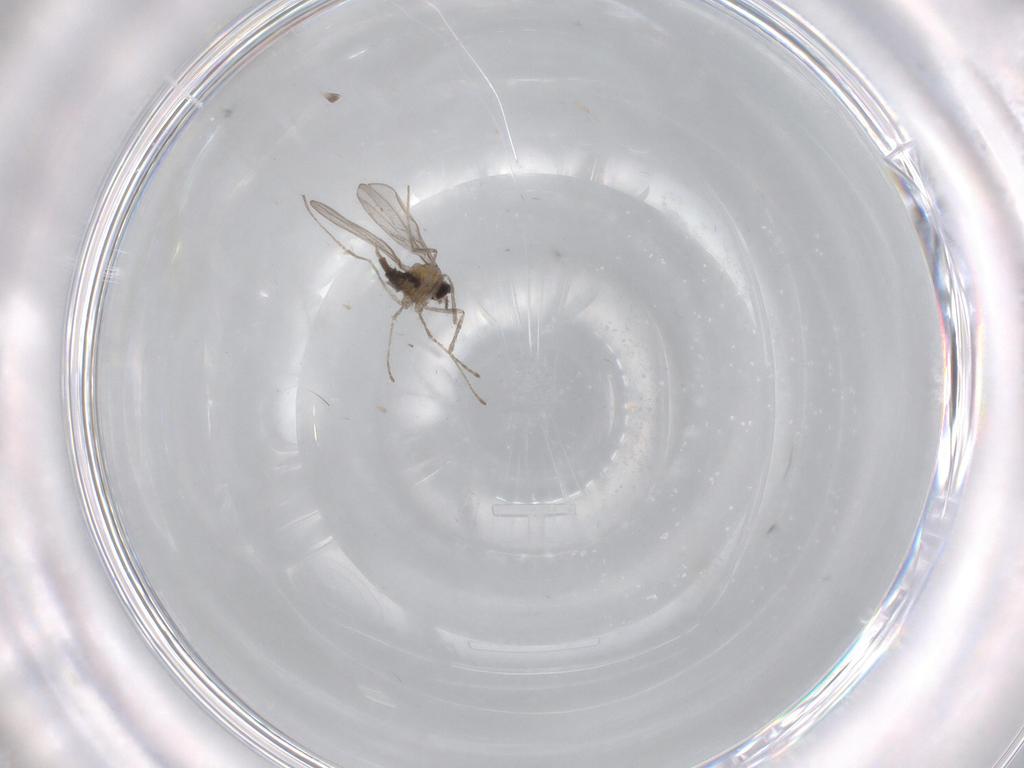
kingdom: Animalia
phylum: Arthropoda
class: Insecta
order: Diptera
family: Cecidomyiidae
